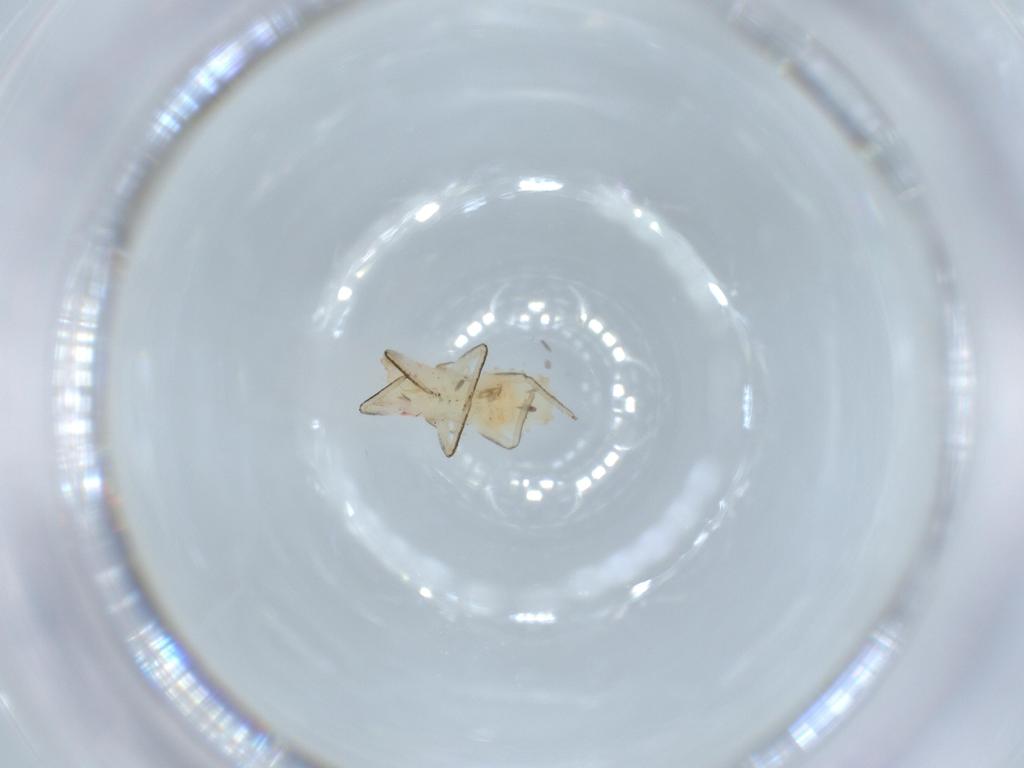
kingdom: Animalia
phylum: Arthropoda
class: Insecta
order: Coleoptera
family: Staphylinidae
